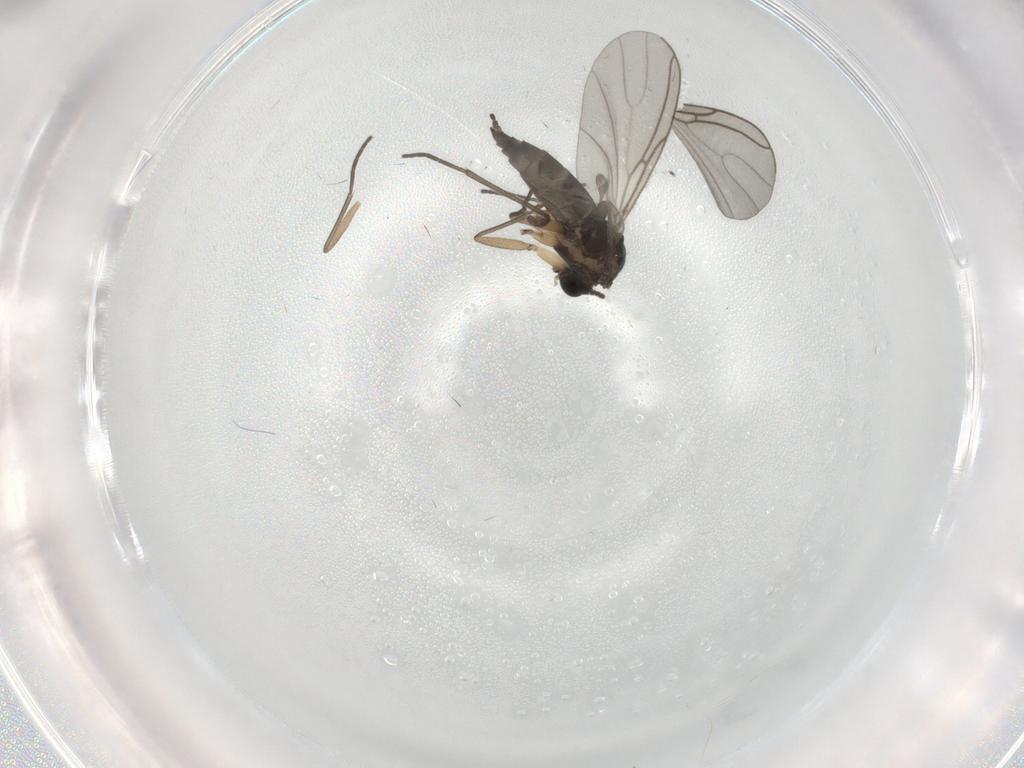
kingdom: Animalia
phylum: Arthropoda
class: Insecta
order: Diptera
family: Sciaridae
